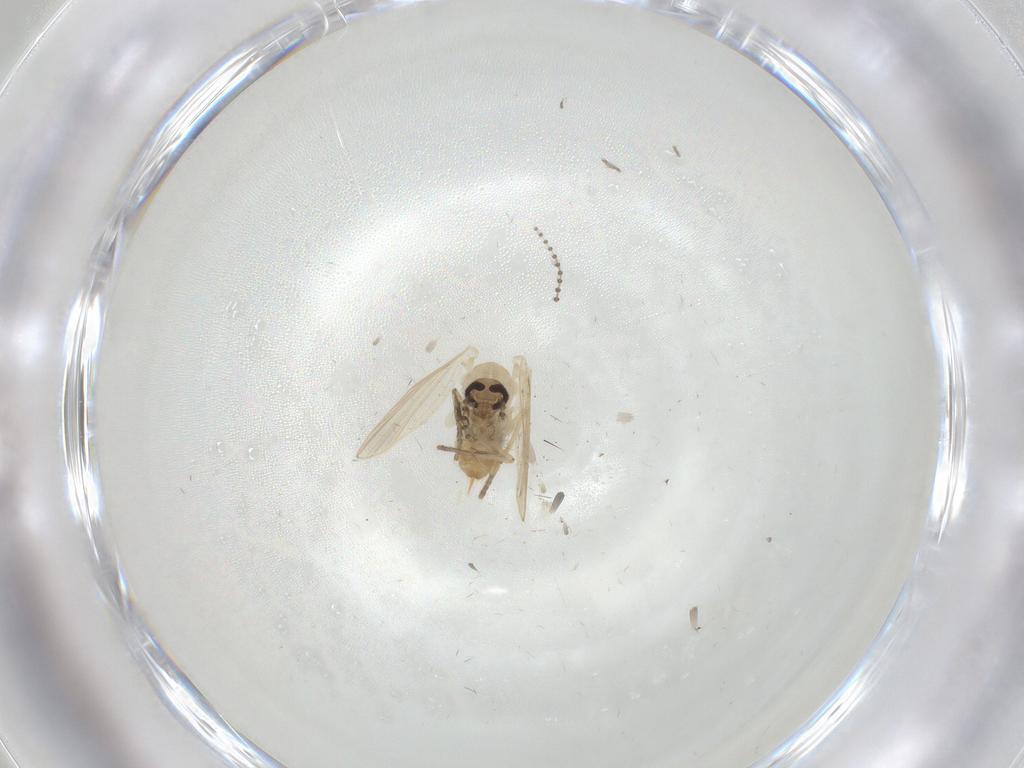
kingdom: Animalia
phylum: Arthropoda
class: Insecta
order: Diptera
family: Psychodidae
